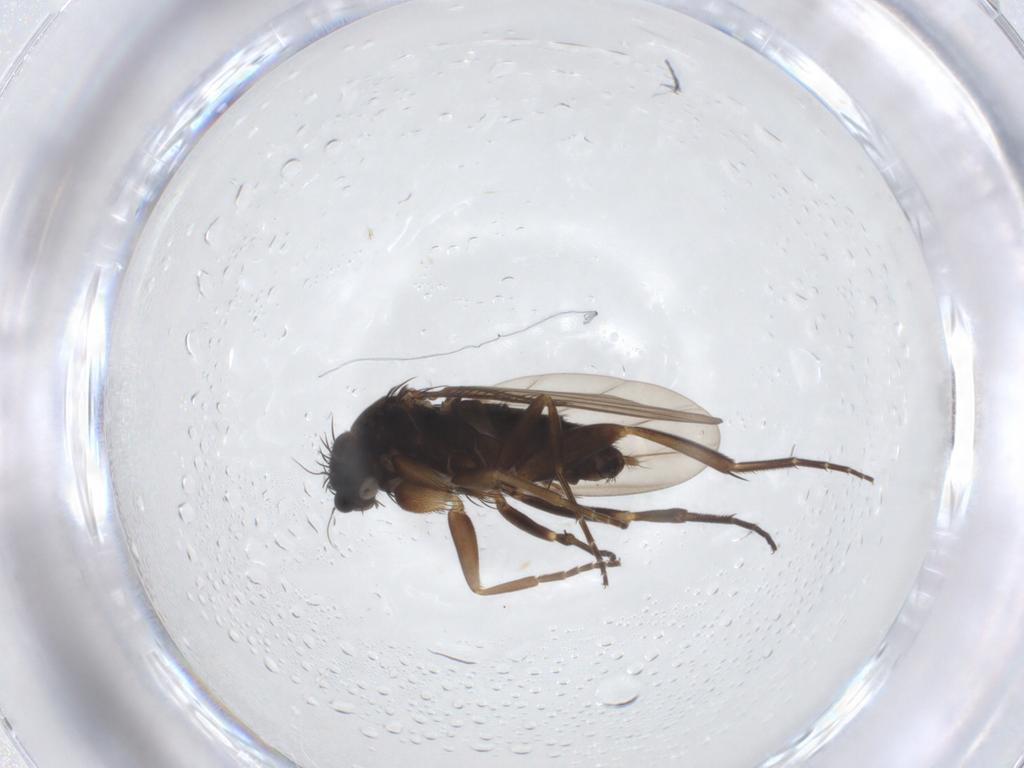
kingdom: Animalia
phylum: Arthropoda
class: Insecta
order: Diptera
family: Phoridae
